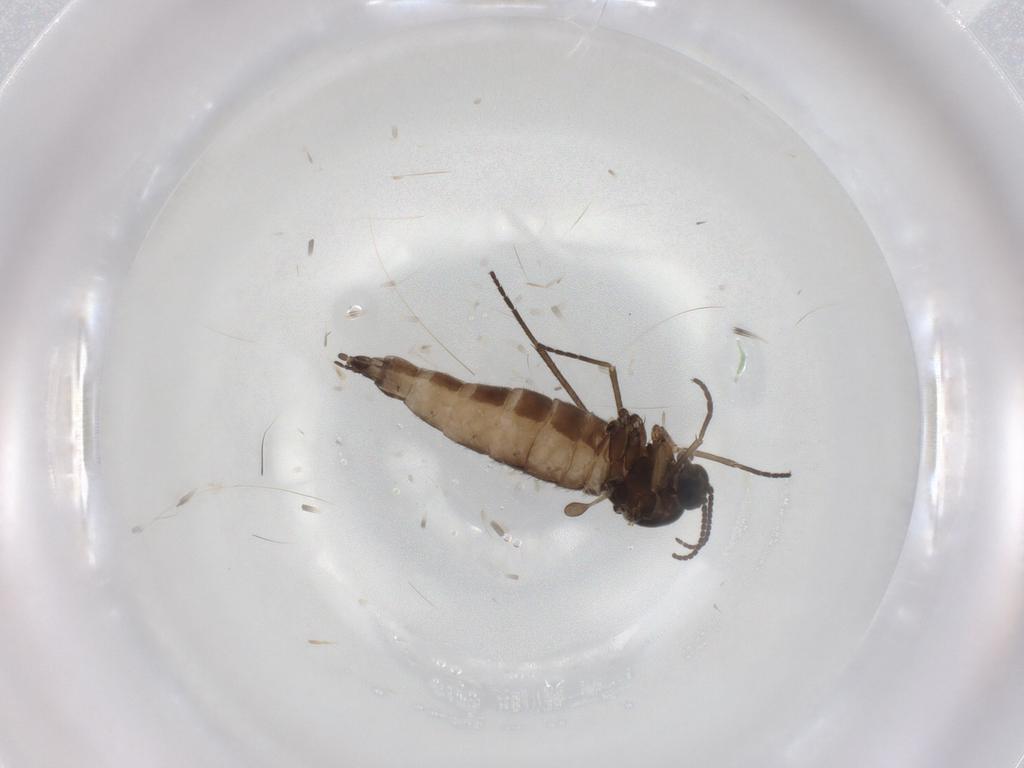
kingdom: Animalia
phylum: Arthropoda
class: Insecta
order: Diptera
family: Sciaridae
